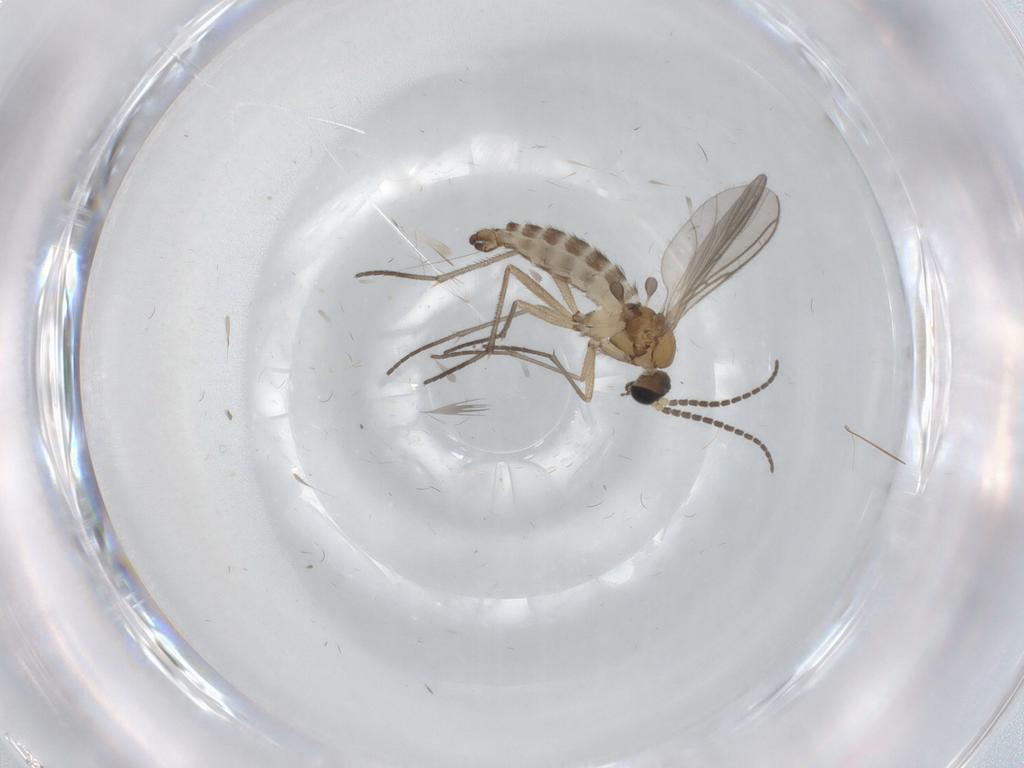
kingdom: Animalia
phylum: Arthropoda
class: Insecta
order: Diptera
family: Sciaridae
